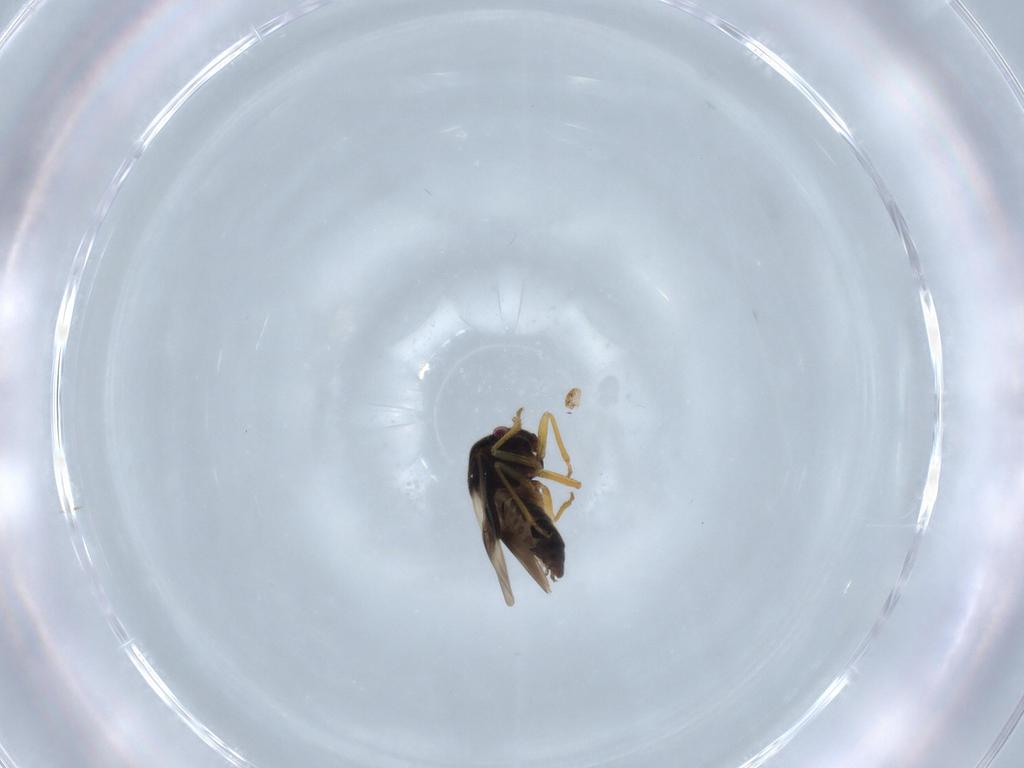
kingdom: Animalia
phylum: Arthropoda
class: Insecta
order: Hemiptera
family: Schizopteridae
